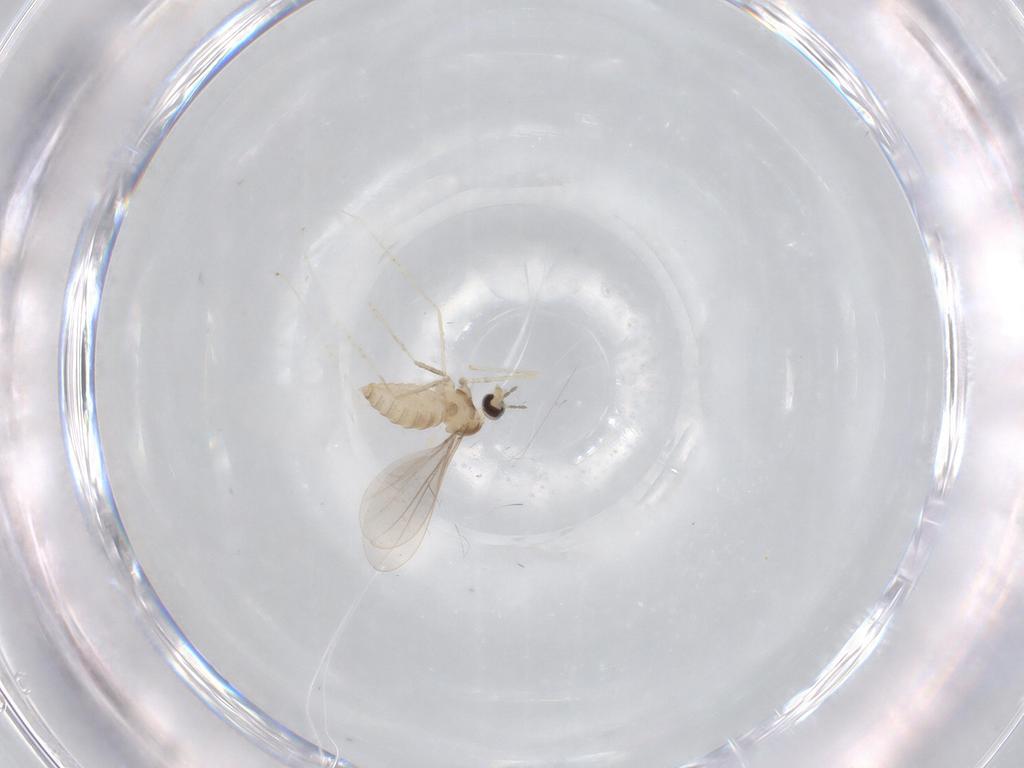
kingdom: Animalia
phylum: Arthropoda
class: Insecta
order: Diptera
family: Cecidomyiidae
